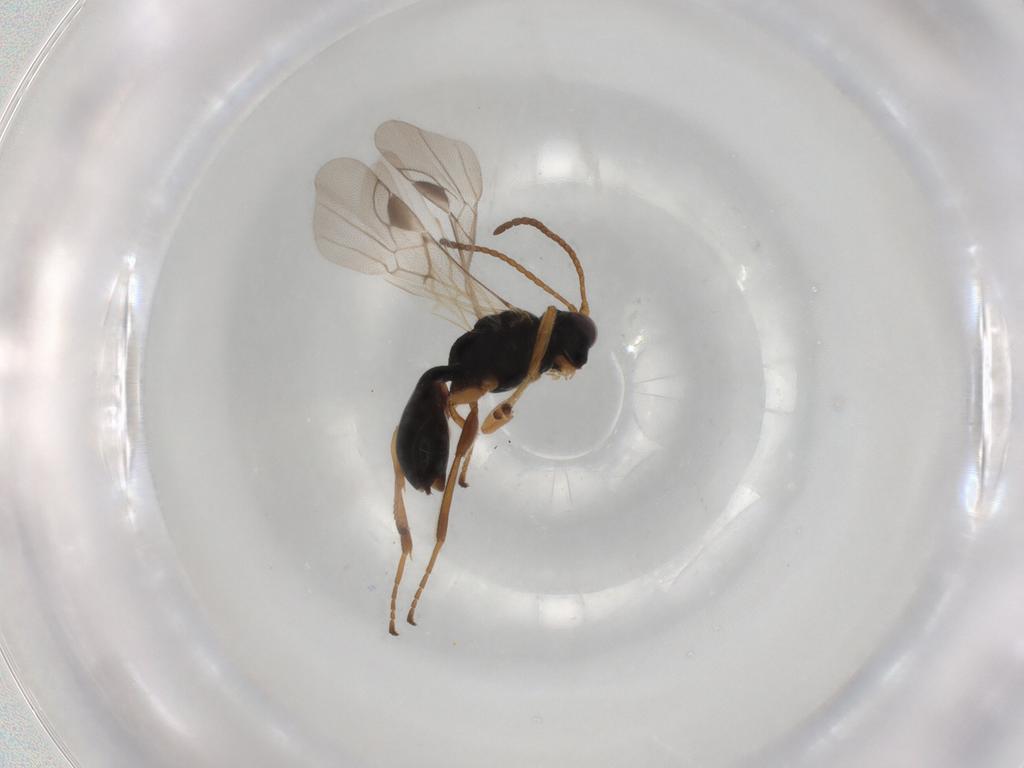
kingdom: Animalia
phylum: Arthropoda
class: Insecta
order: Hymenoptera
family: Braconidae
